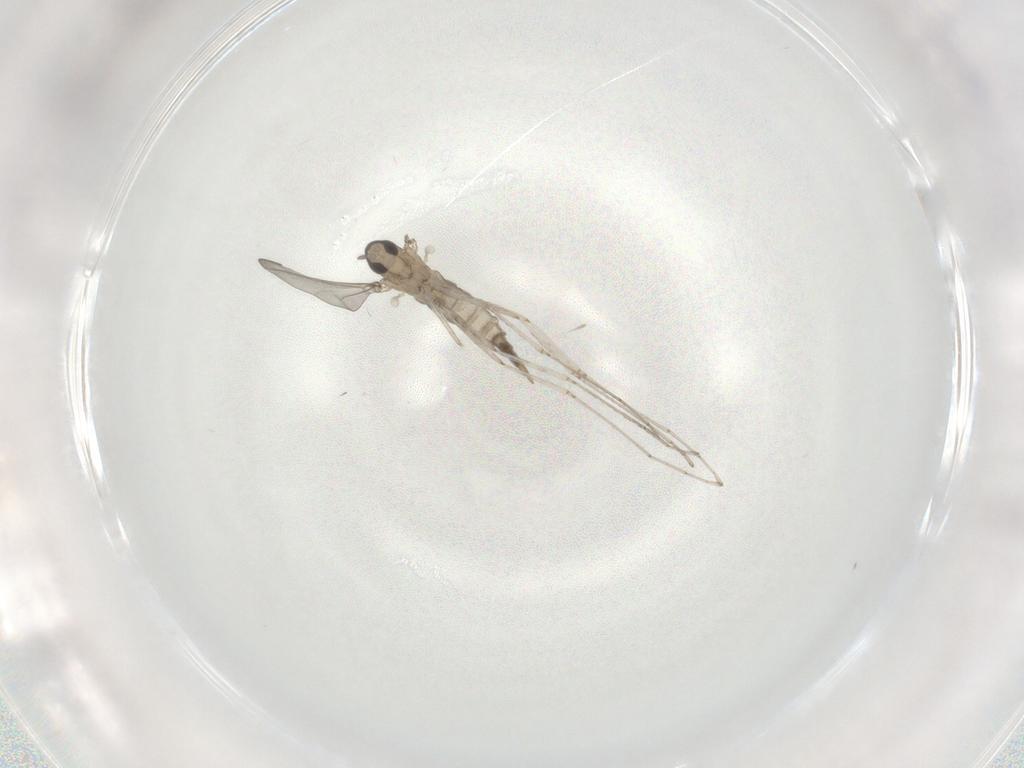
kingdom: Animalia
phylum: Arthropoda
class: Insecta
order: Diptera
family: Cecidomyiidae
